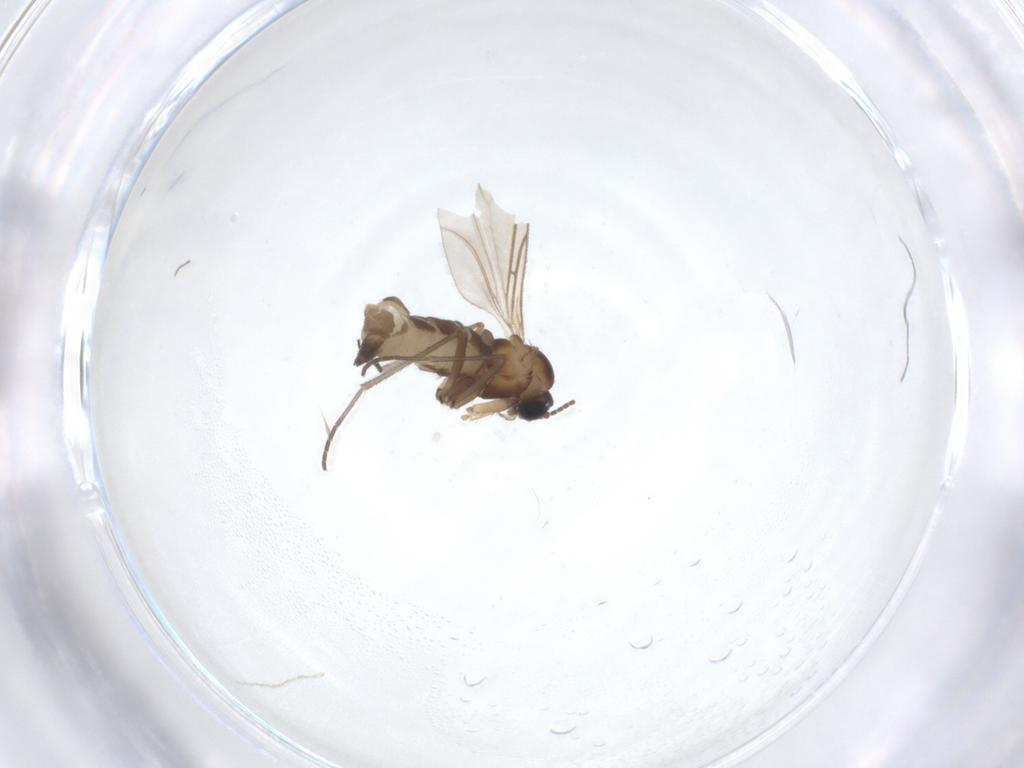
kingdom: Animalia
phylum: Arthropoda
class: Insecta
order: Diptera
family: Sciaridae
